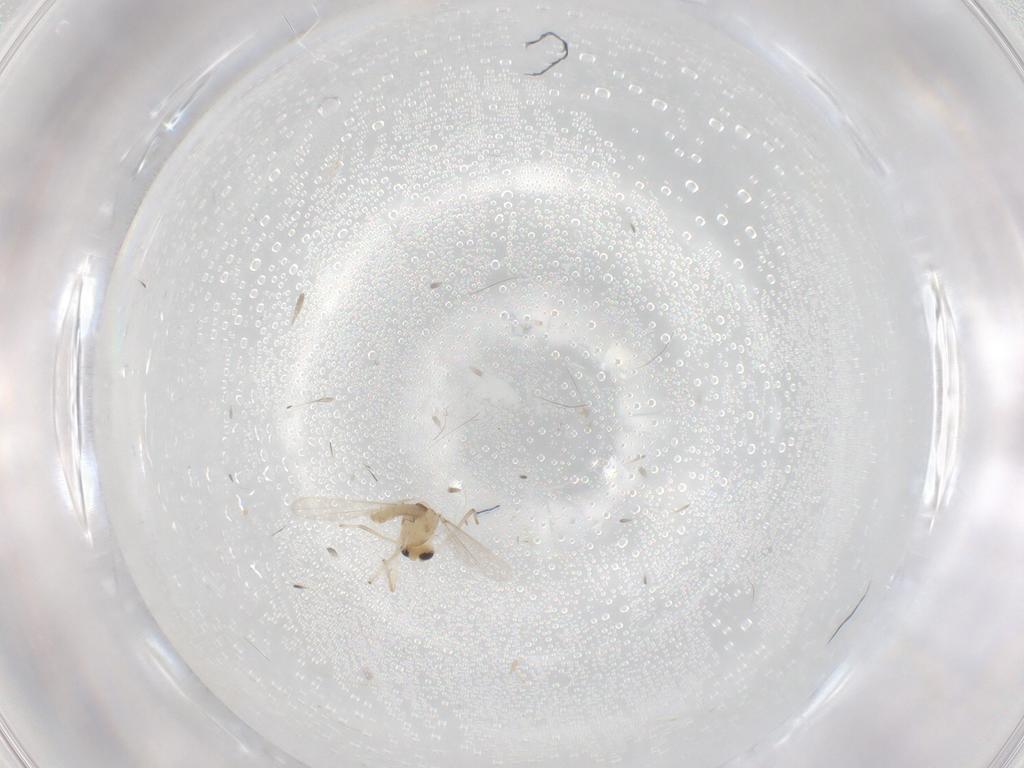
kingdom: Animalia
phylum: Arthropoda
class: Insecta
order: Diptera
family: Chironomidae
